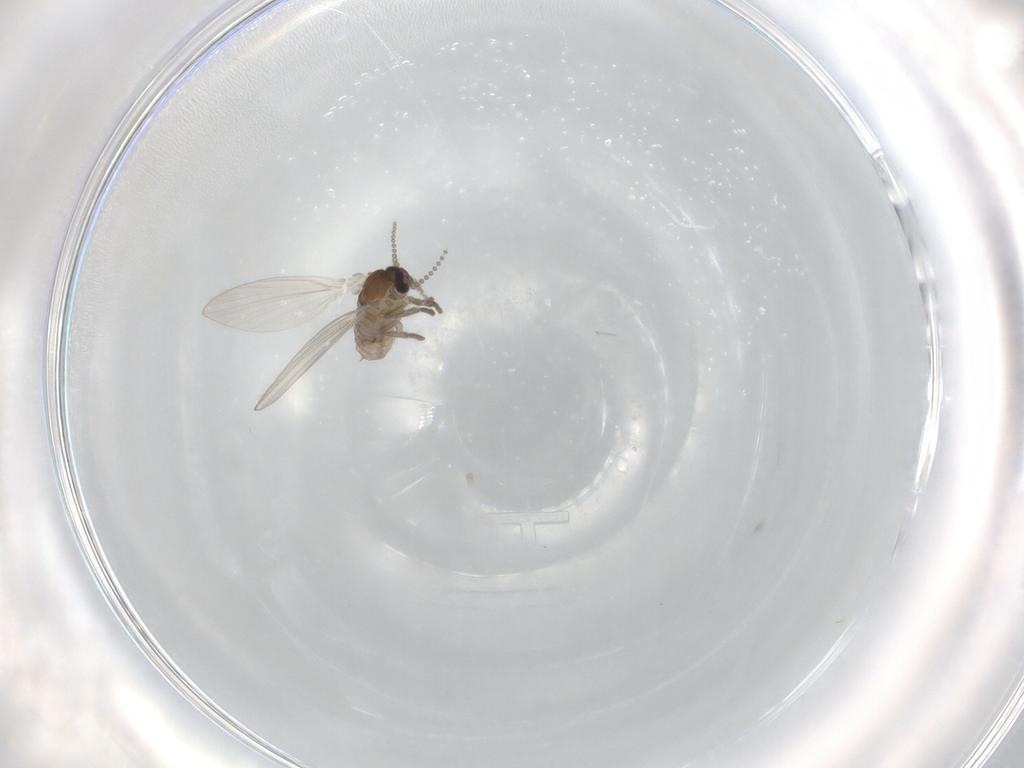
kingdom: Animalia
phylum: Arthropoda
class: Insecta
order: Diptera
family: Psychodidae
